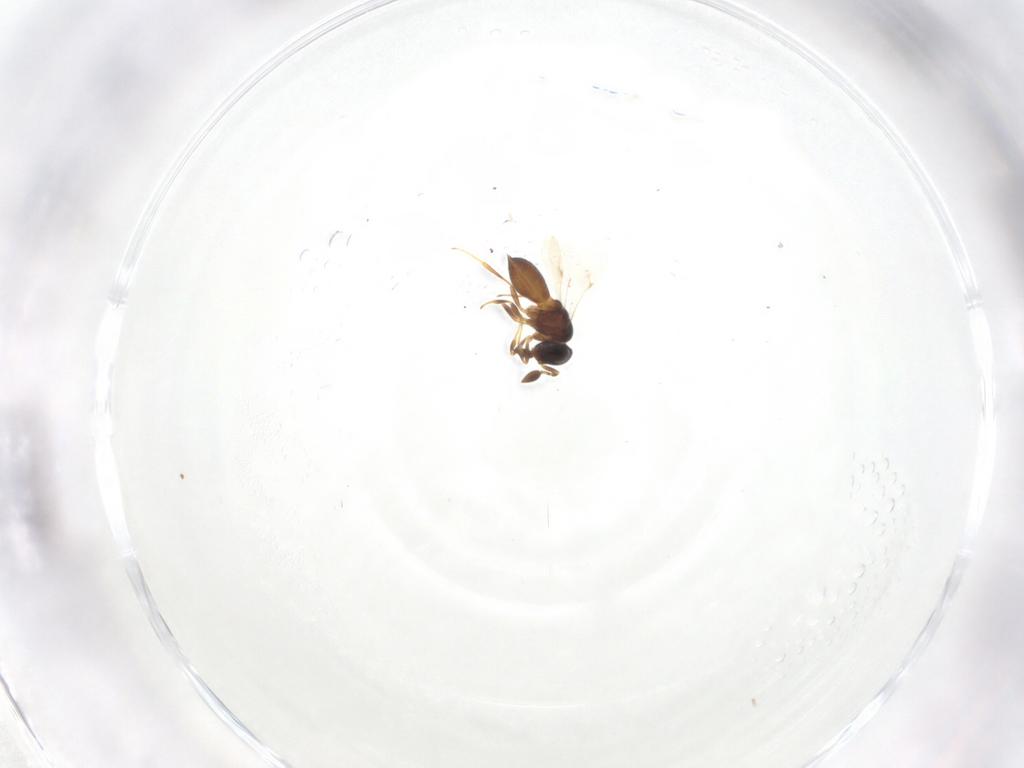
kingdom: Animalia
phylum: Arthropoda
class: Insecta
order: Hymenoptera
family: Scelionidae
